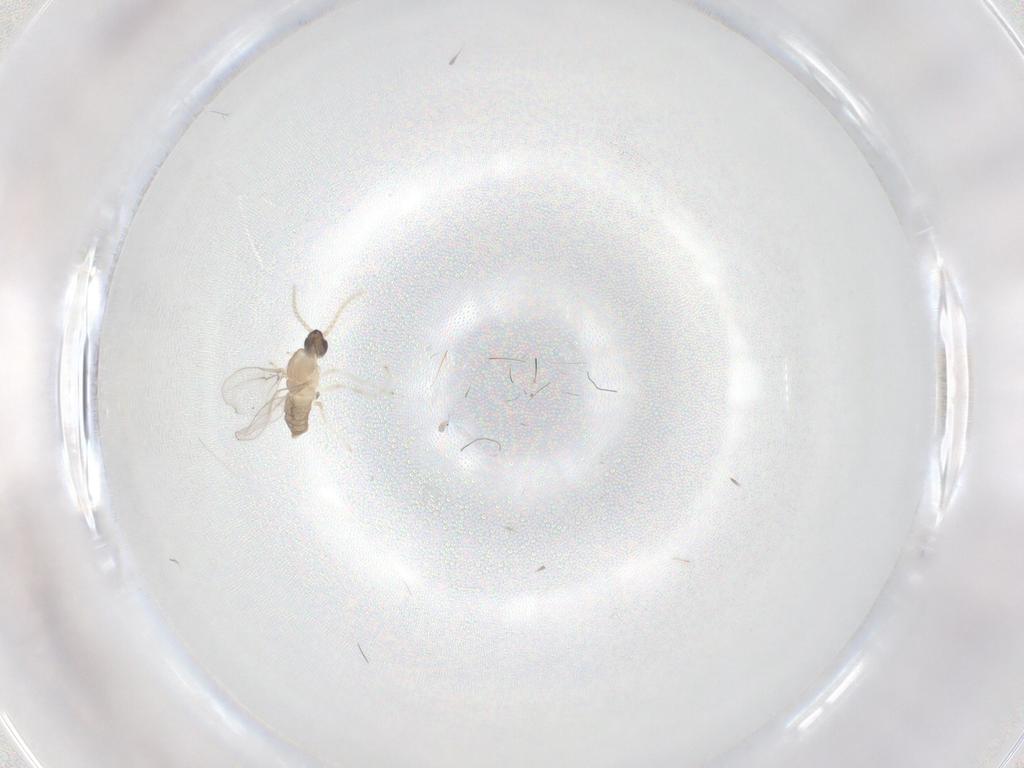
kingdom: Animalia
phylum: Arthropoda
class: Insecta
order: Diptera
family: Cecidomyiidae
